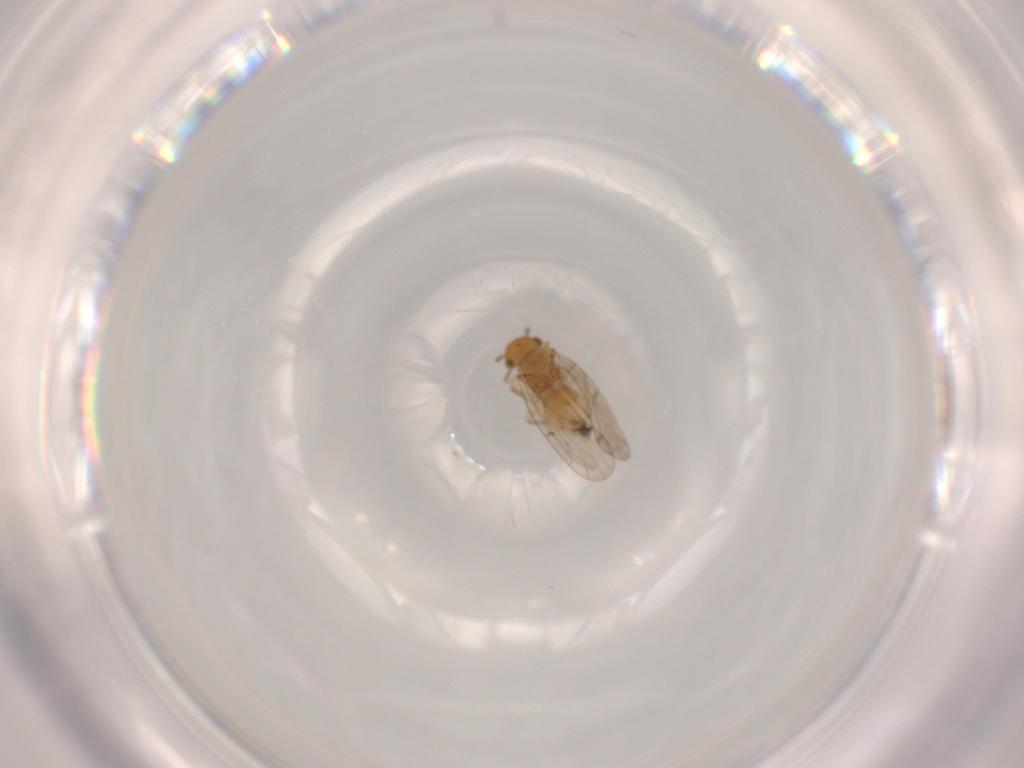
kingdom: Animalia
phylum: Arthropoda
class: Insecta
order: Psocodea
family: Ectopsocidae
